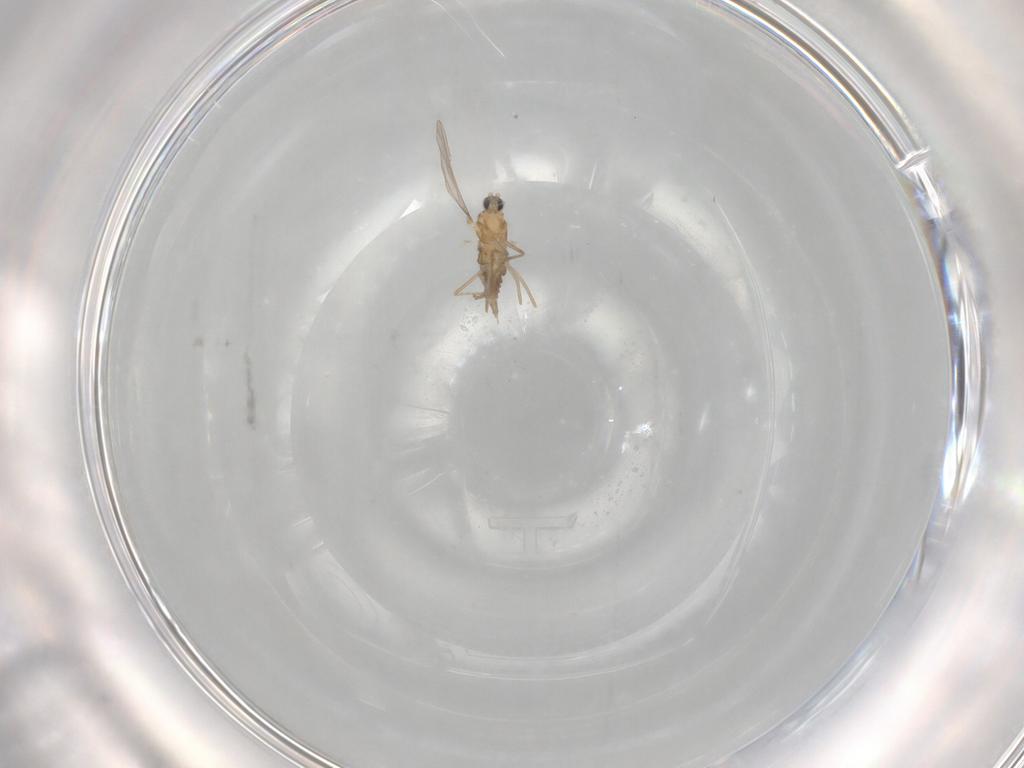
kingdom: Animalia
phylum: Arthropoda
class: Insecta
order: Diptera
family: Cecidomyiidae
